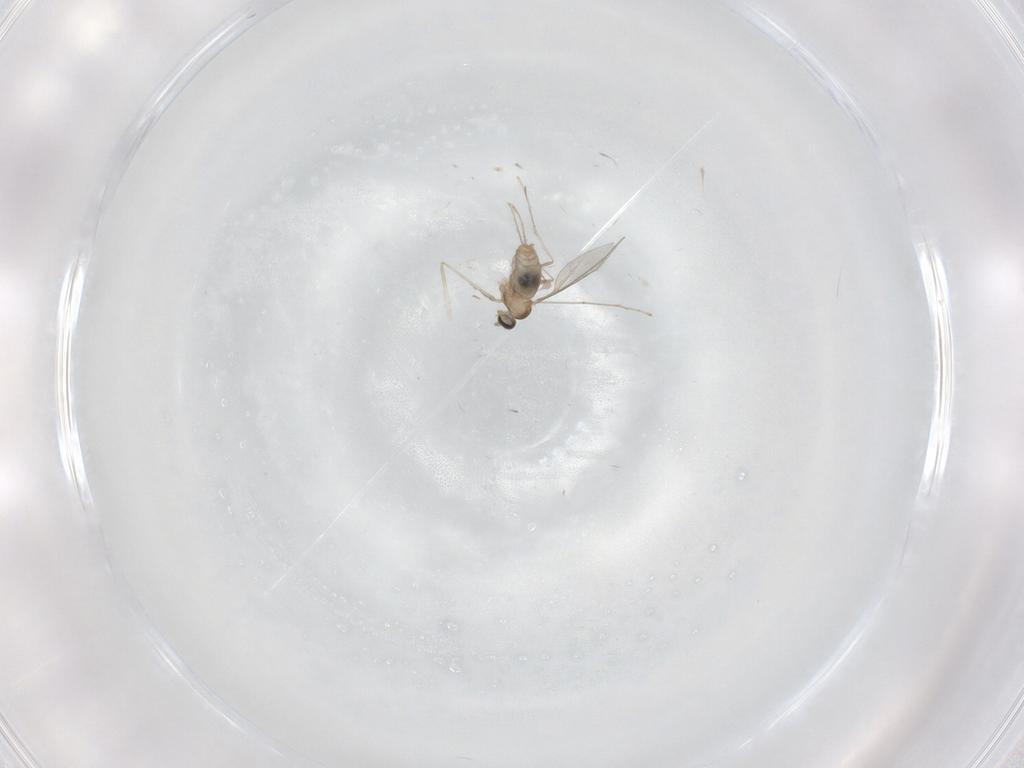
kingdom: Animalia
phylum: Arthropoda
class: Insecta
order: Diptera
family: Cecidomyiidae
